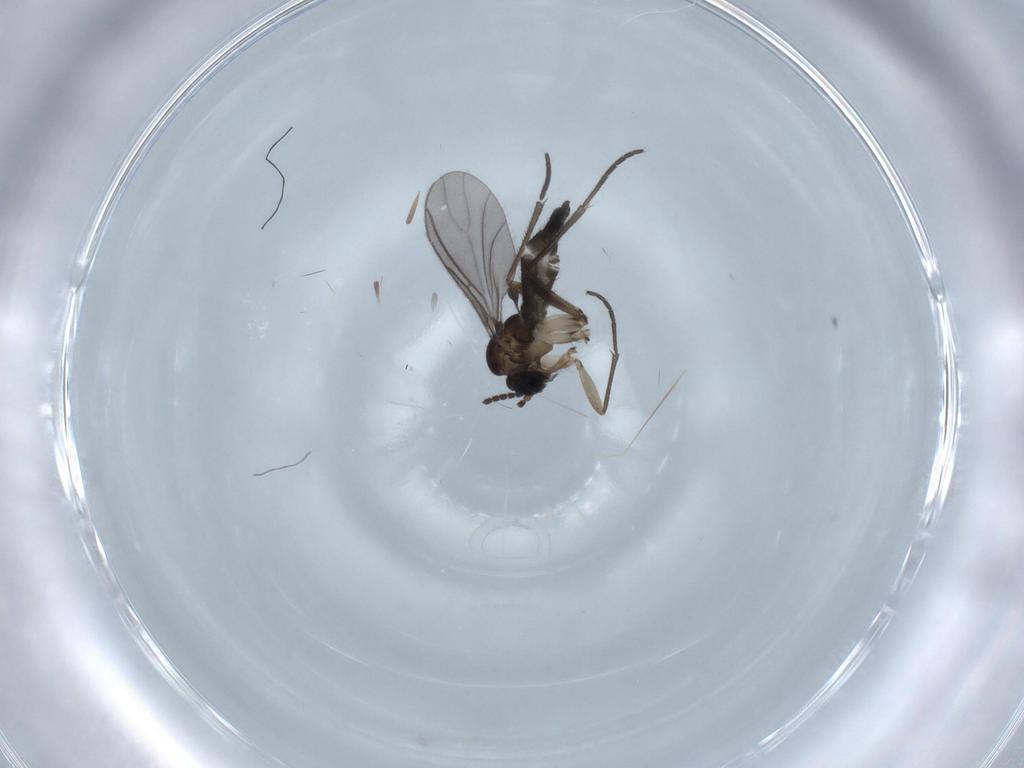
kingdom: Animalia
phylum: Arthropoda
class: Insecta
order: Diptera
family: Sciaridae
